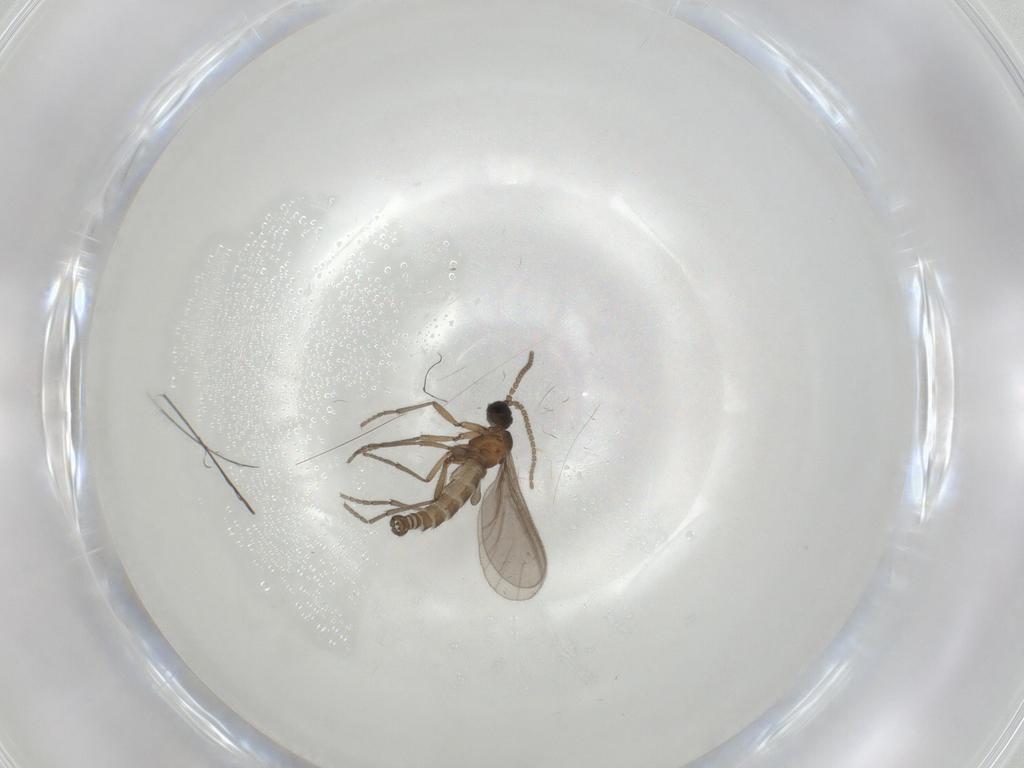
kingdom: Animalia
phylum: Arthropoda
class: Insecta
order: Diptera
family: Sciaridae
